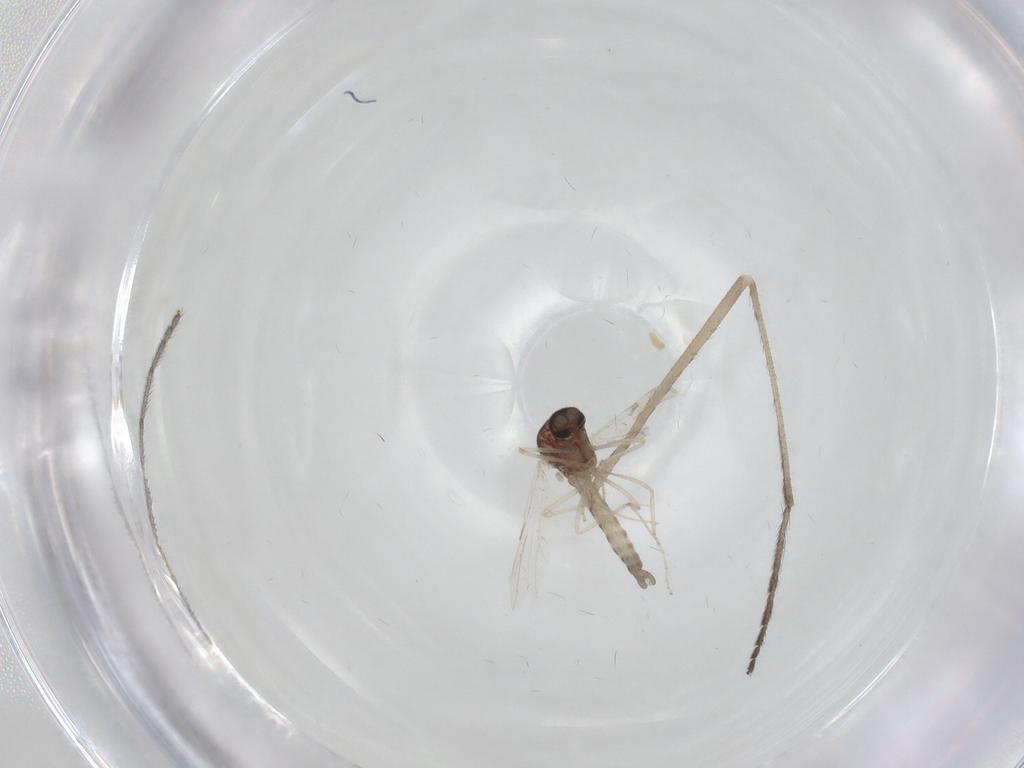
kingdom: Animalia
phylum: Arthropoda
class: Insecta
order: Diptera
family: Ceratopogonidae
